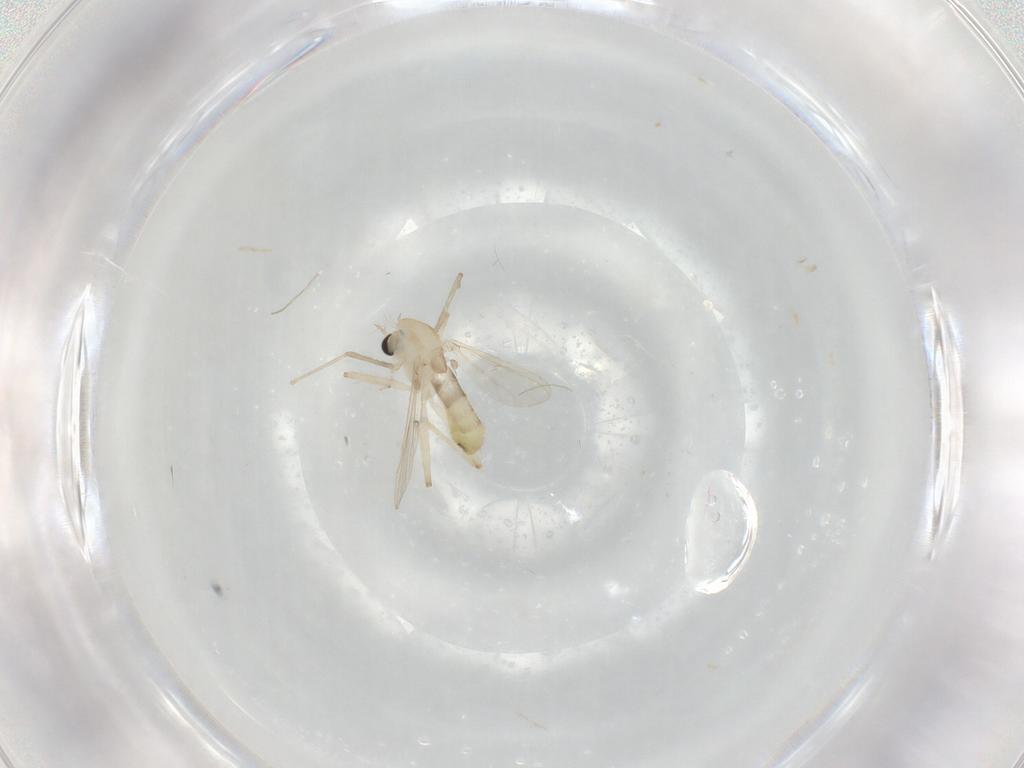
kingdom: Animalia
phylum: Arthropoda
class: Insecta
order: Diptera
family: Chironomidae
